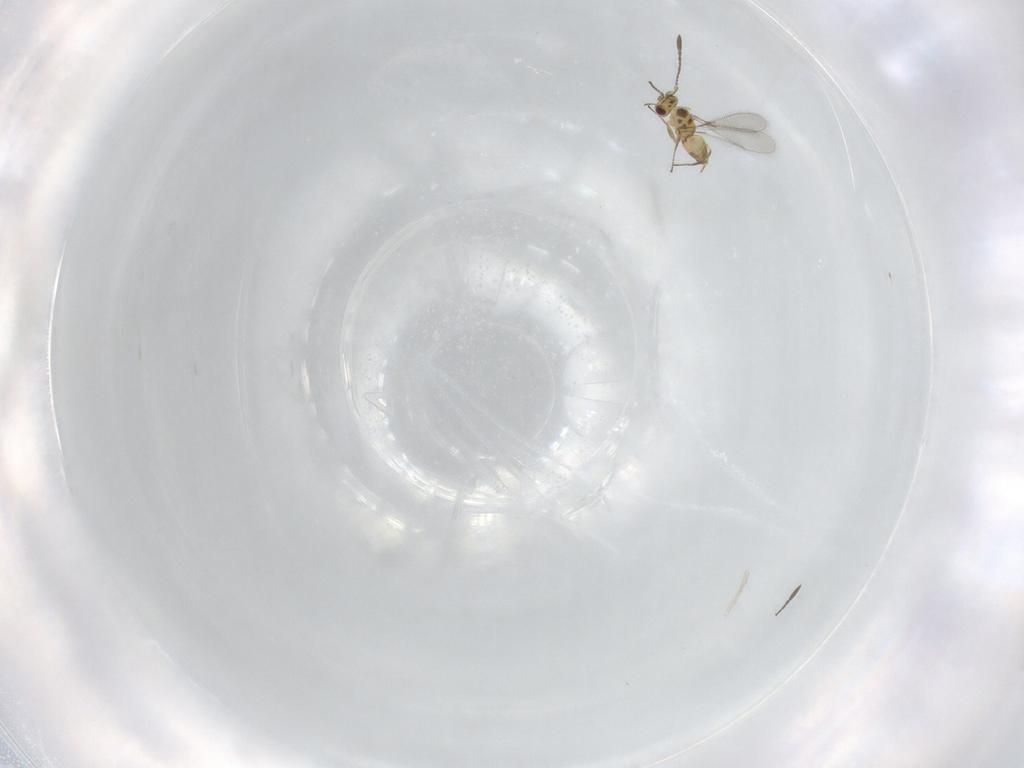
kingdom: Animalia
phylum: Arthropoda
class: Insecta
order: Hymenoptera
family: Mymaridae
